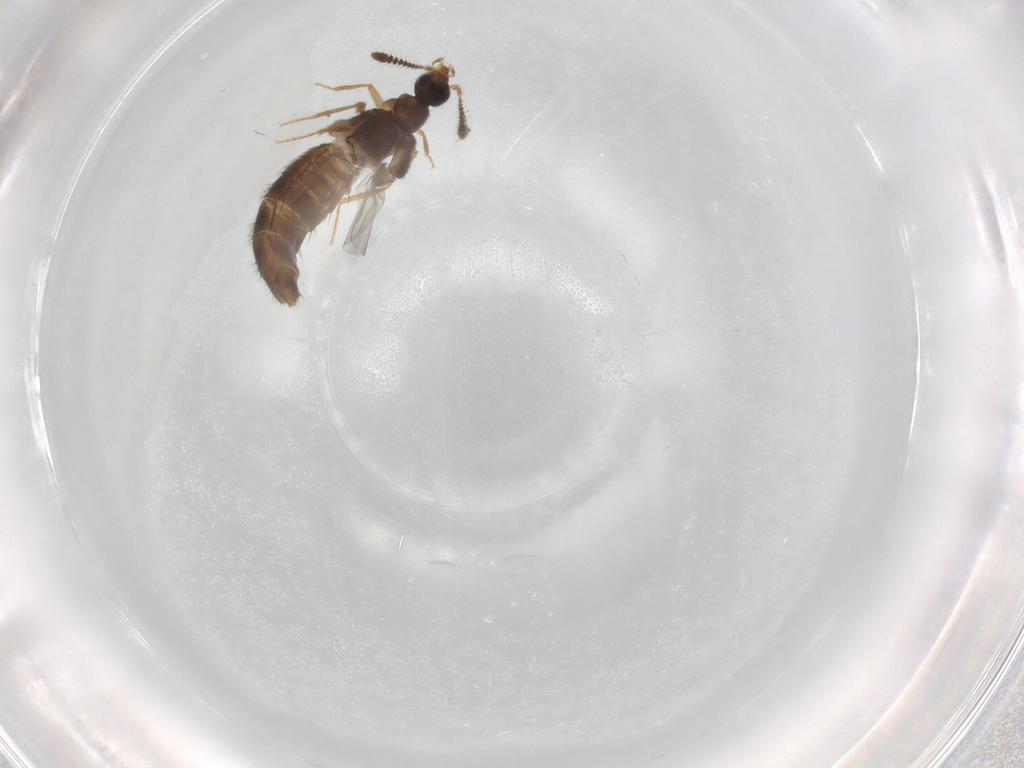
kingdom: Animalia
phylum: Arthropoda
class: Insecta
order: Coleoptera
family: Staphylinidae
